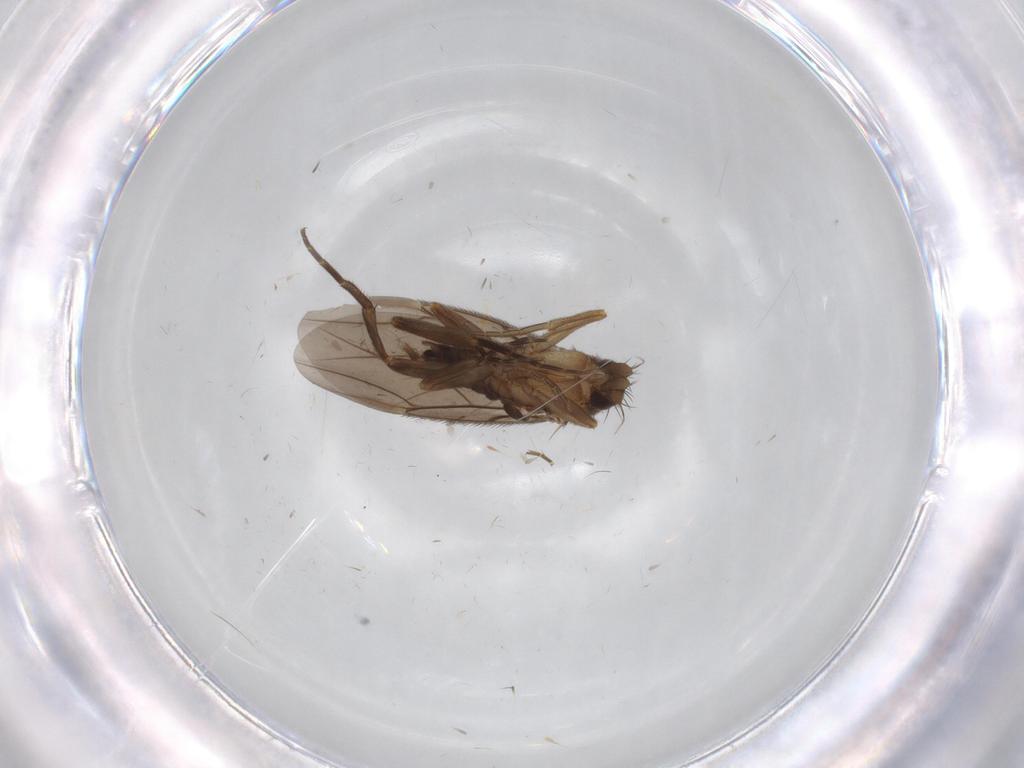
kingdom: Animalia
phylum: Arthropoda
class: Insecta
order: Diptera
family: Phoridae
